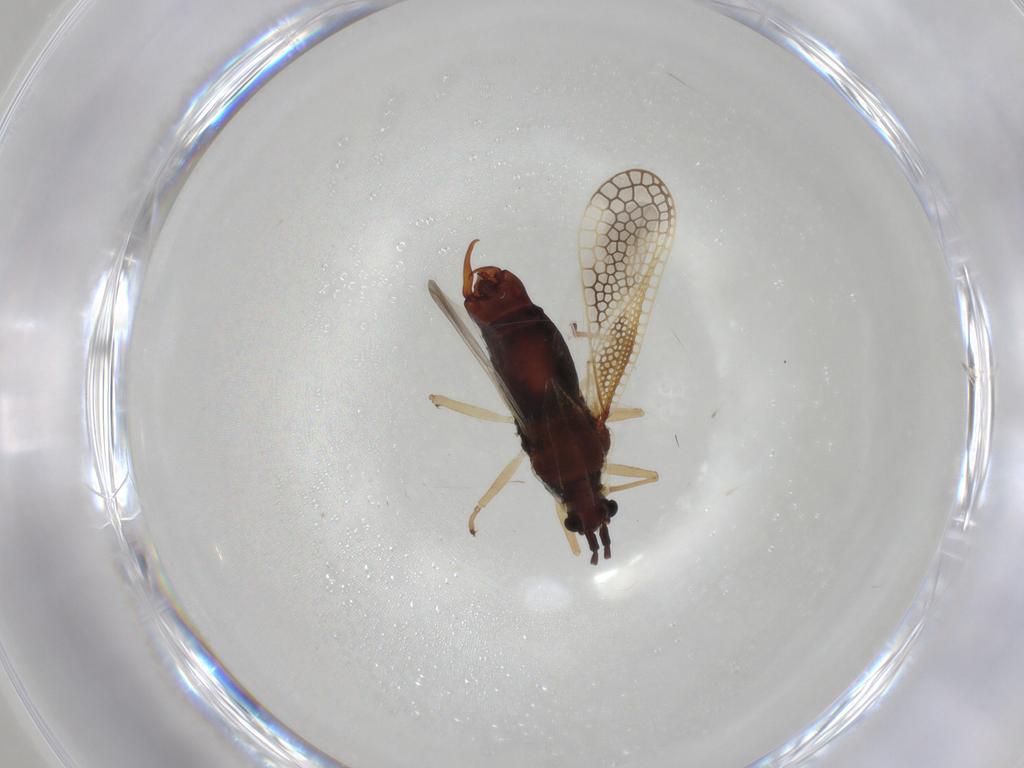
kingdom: Animalia
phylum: Arthropoda
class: Insecta
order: Hemiptera
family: Tingidae
